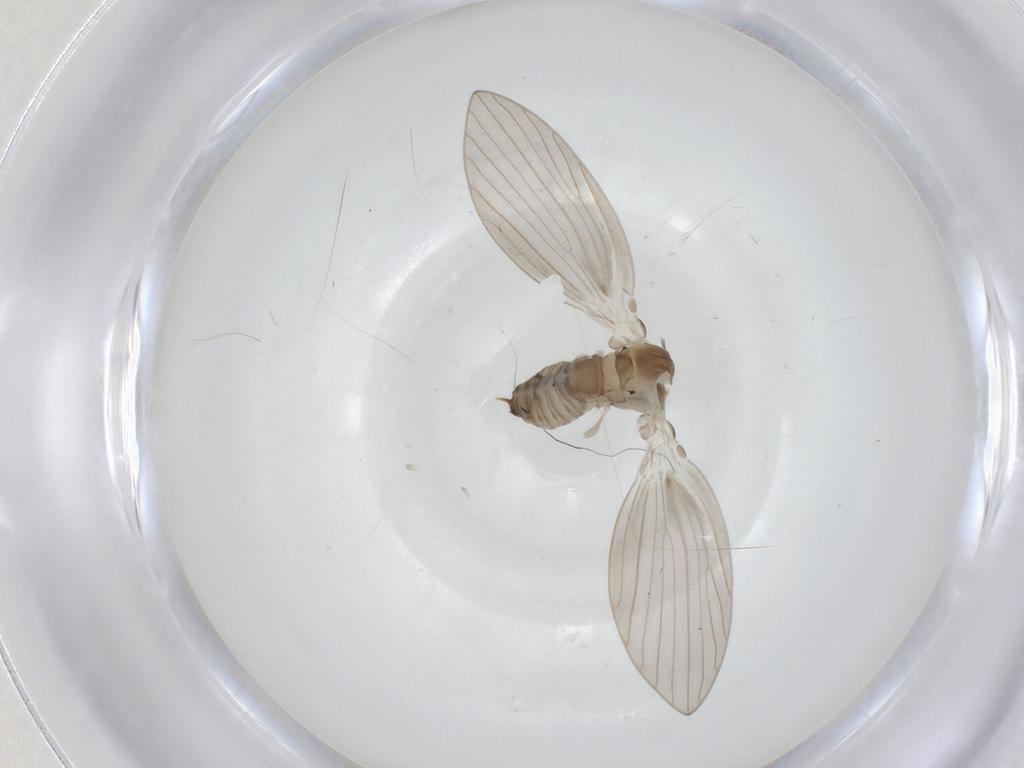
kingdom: Animalia
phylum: Arthropoda
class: Insecta
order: Diptera
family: Psychodidae
